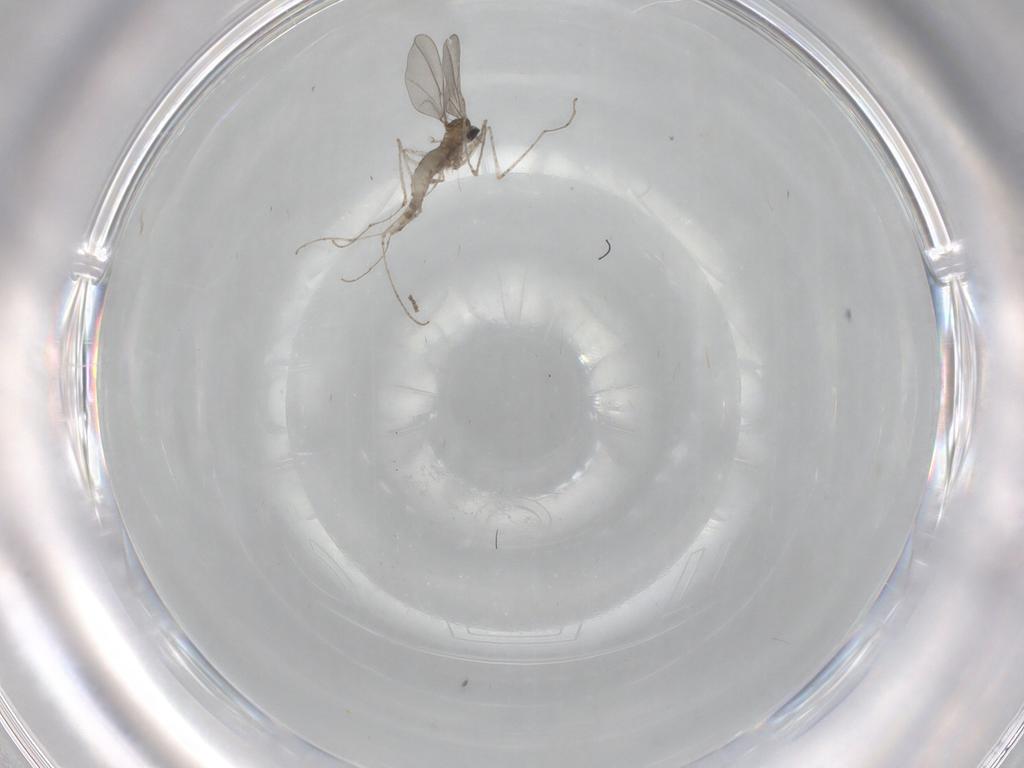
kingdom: Animalia
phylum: Arthropoda
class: Insecta
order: Diptera
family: Cecidomyiidae
